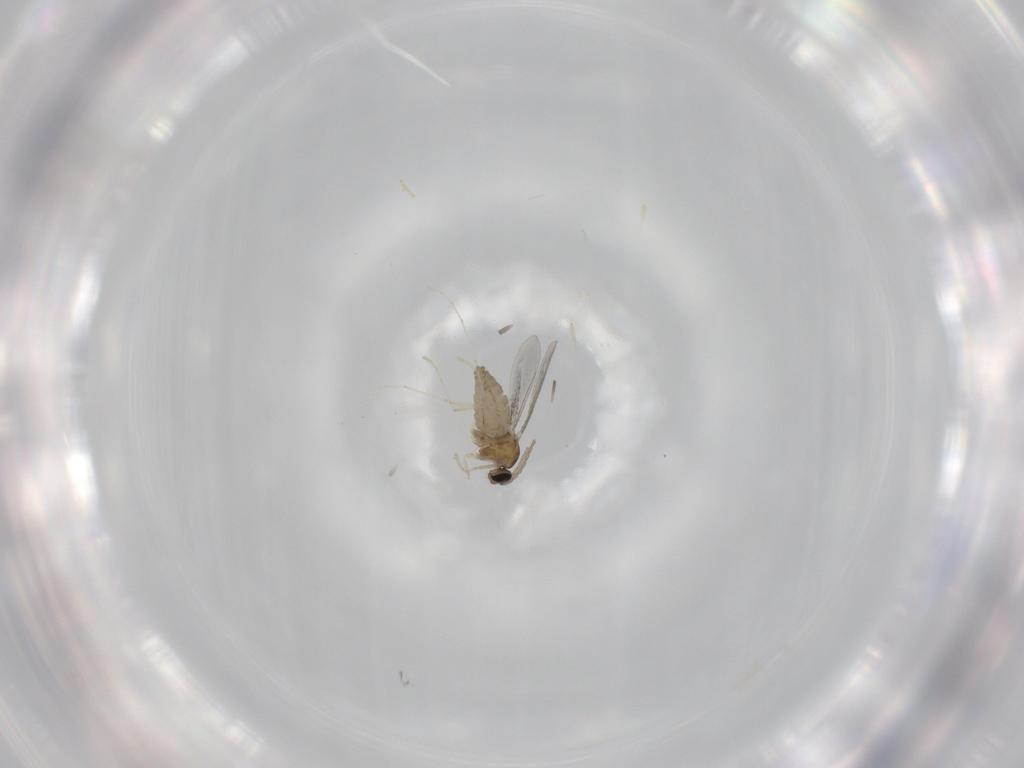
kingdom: Animalia
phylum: Arthropoda
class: Insecta
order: Diptera
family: Cecidomyiidae
